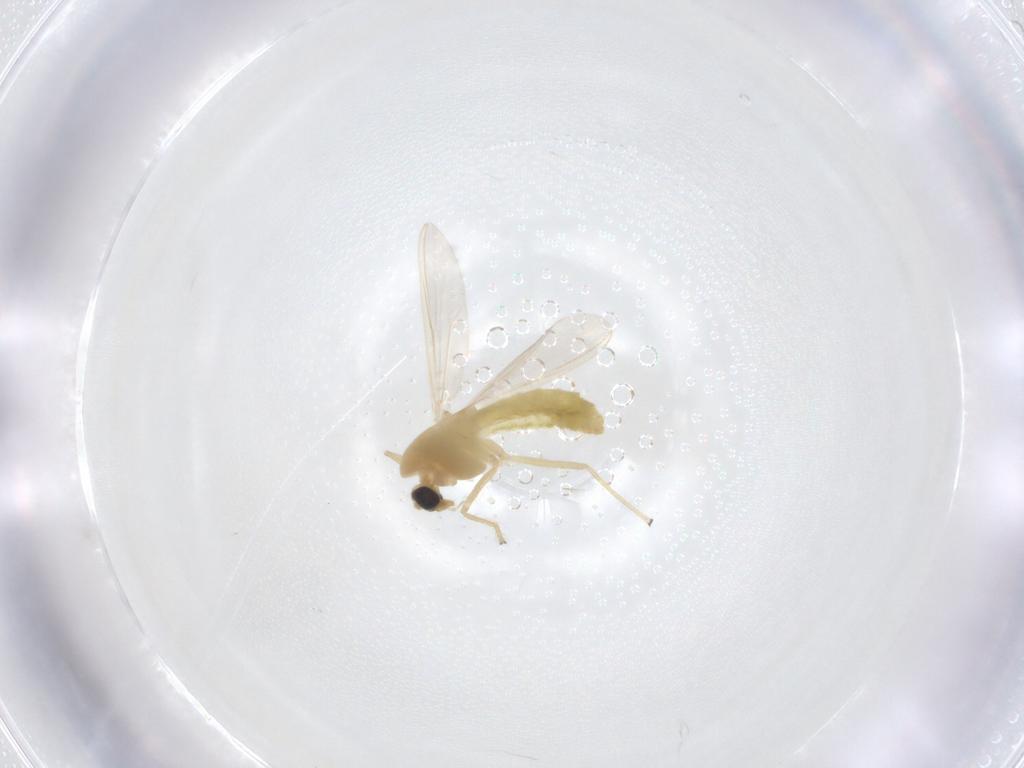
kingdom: Animalia
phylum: Arthropoda
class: Insecta
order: Diptera
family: Chironomidae
